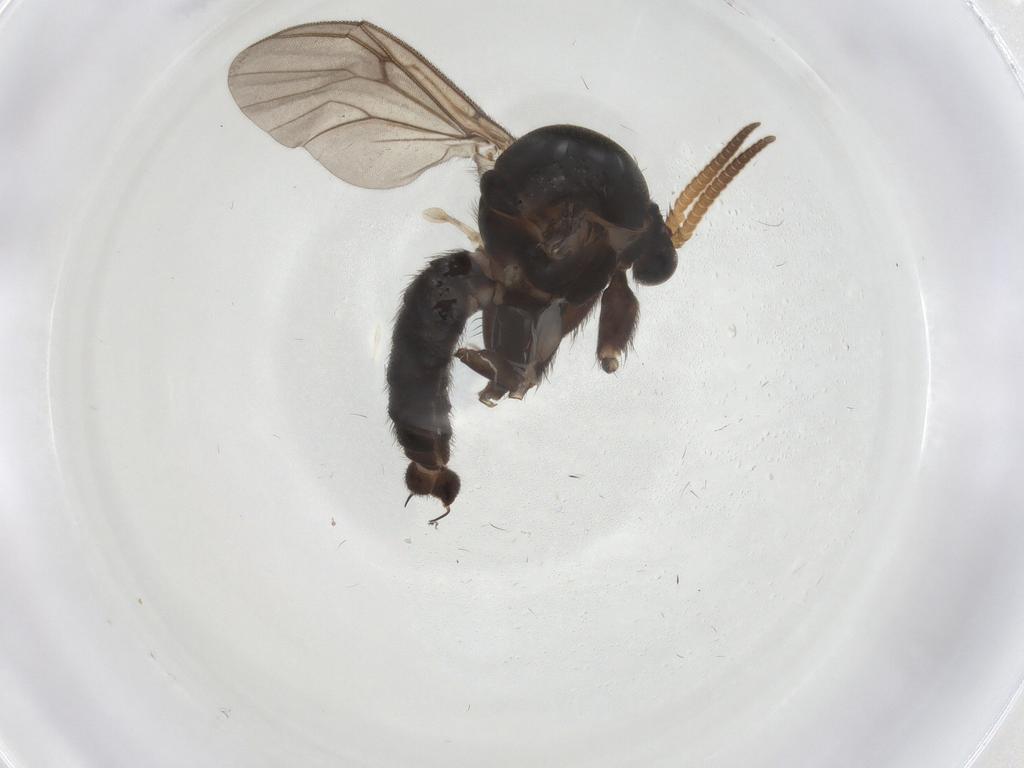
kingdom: Animalia
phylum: Arthropoda
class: Insecta
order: Diptera
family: Mycetophilidae
